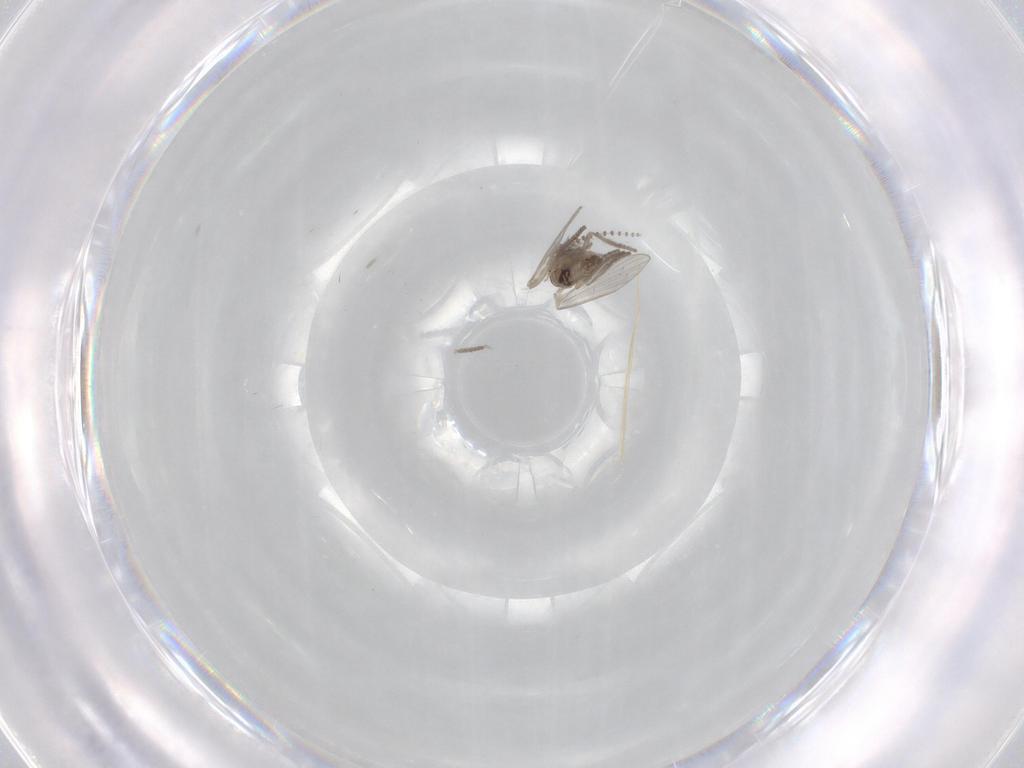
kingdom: Animalia
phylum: Arthropoda
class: Insecta
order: Diptera
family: Psychodidae
